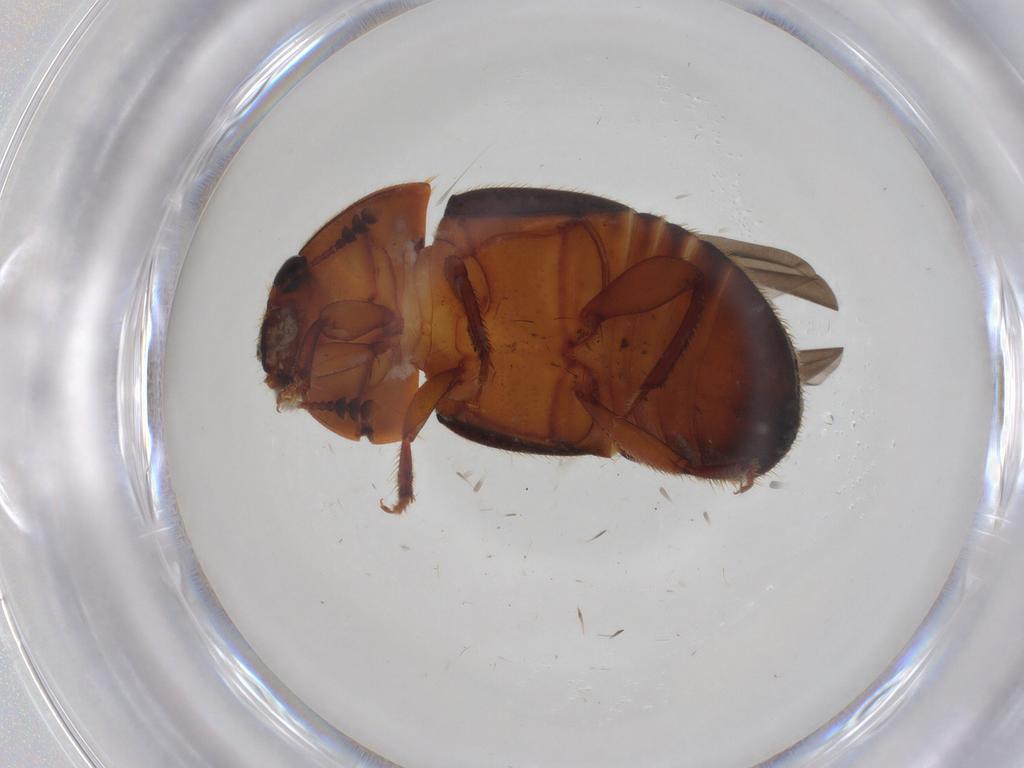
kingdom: Animalia
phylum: Arthropoda
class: Insecta
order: Coleoptera
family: Nitidulidae
